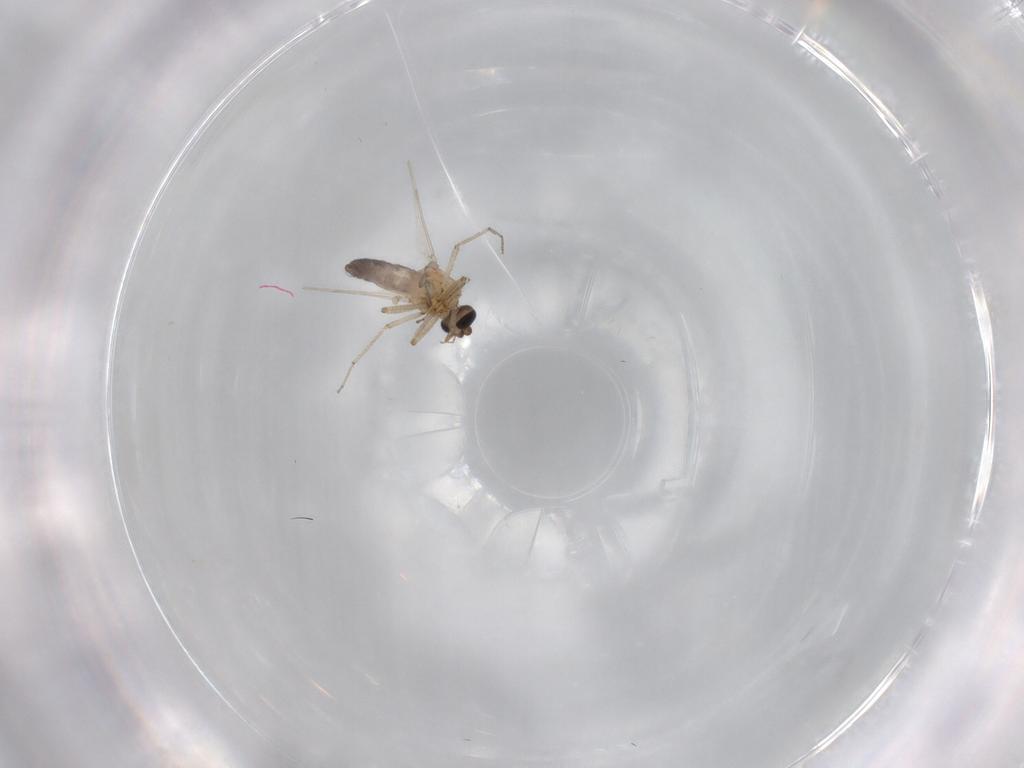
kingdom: Animalia
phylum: Arthropoda
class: Insecta
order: Diptera
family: Ceratopogonidae
